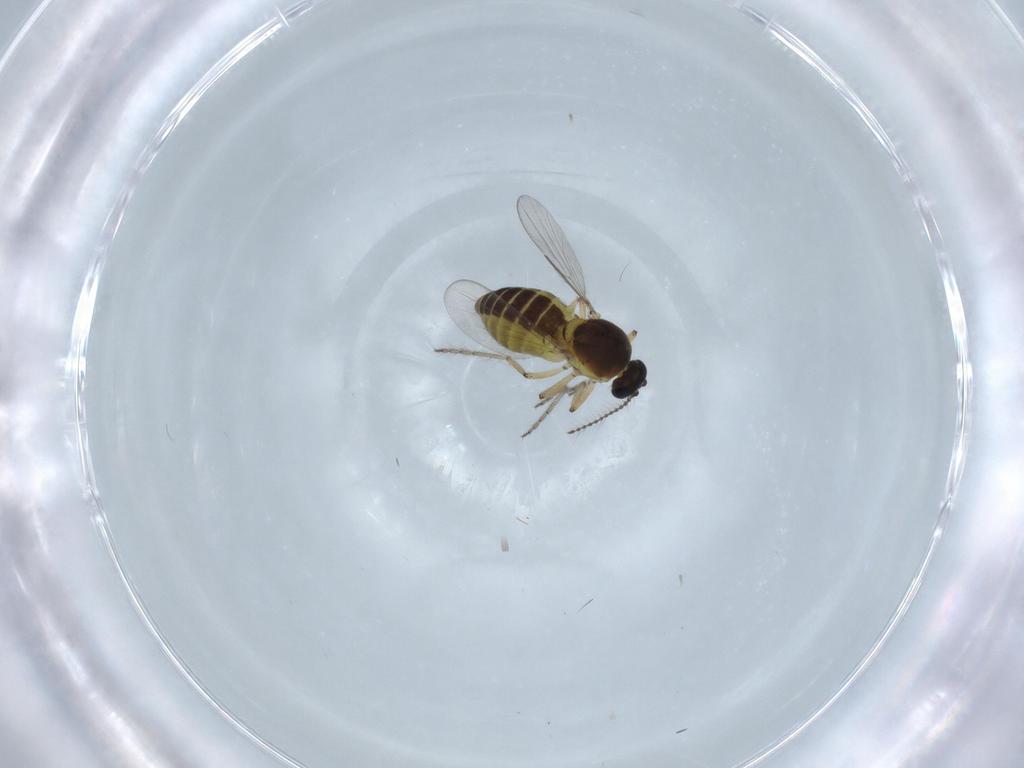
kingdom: Animalia
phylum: Arthropoda
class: Insecta
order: Diptera
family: Ceratopogonidae
